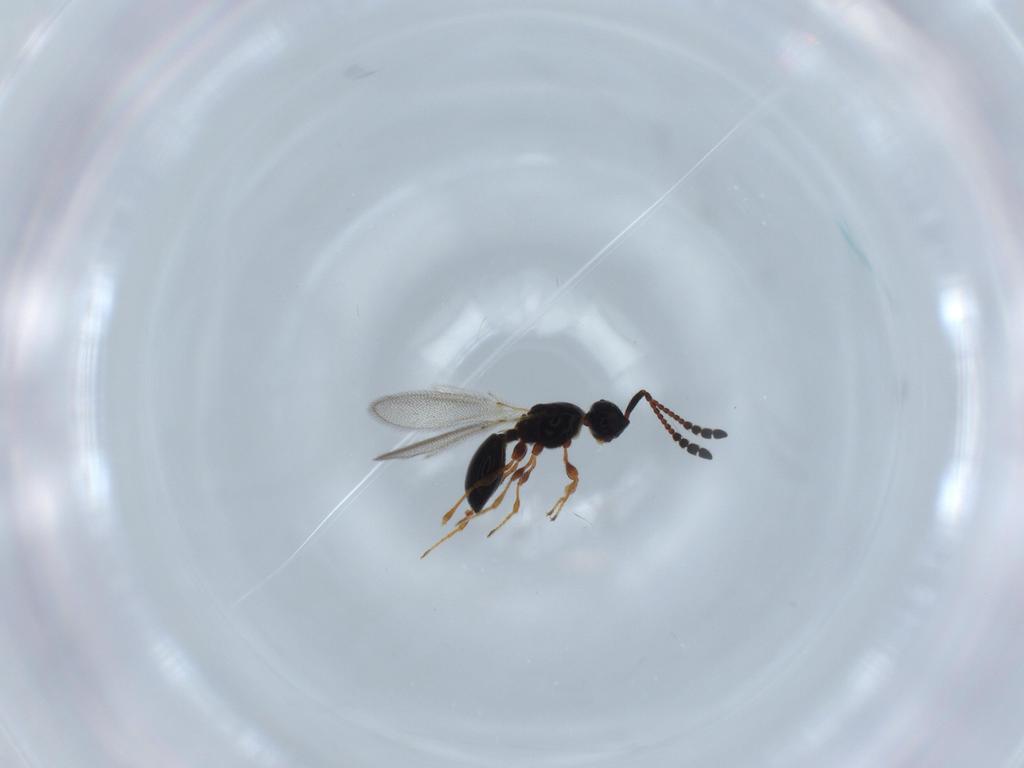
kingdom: Animalia
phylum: Arthropoda
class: Insecta
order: Hymenoptera
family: Diapriidae
